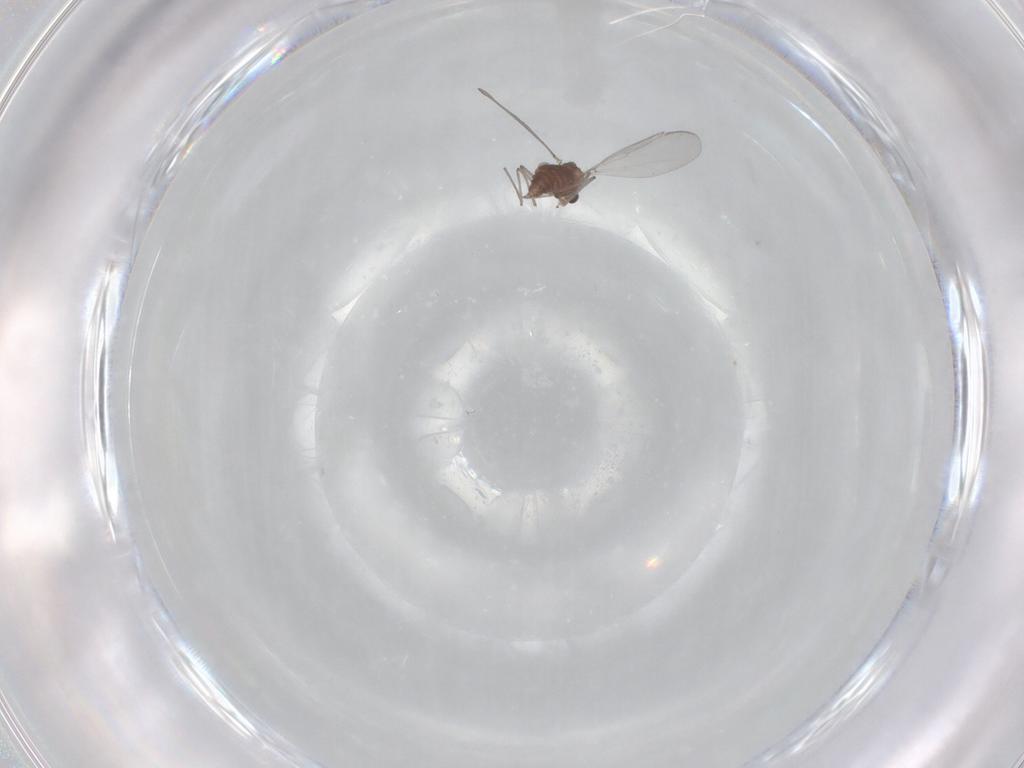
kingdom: Animalia
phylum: Arthropoda
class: Insecta
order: Diptera
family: Chironomidae
